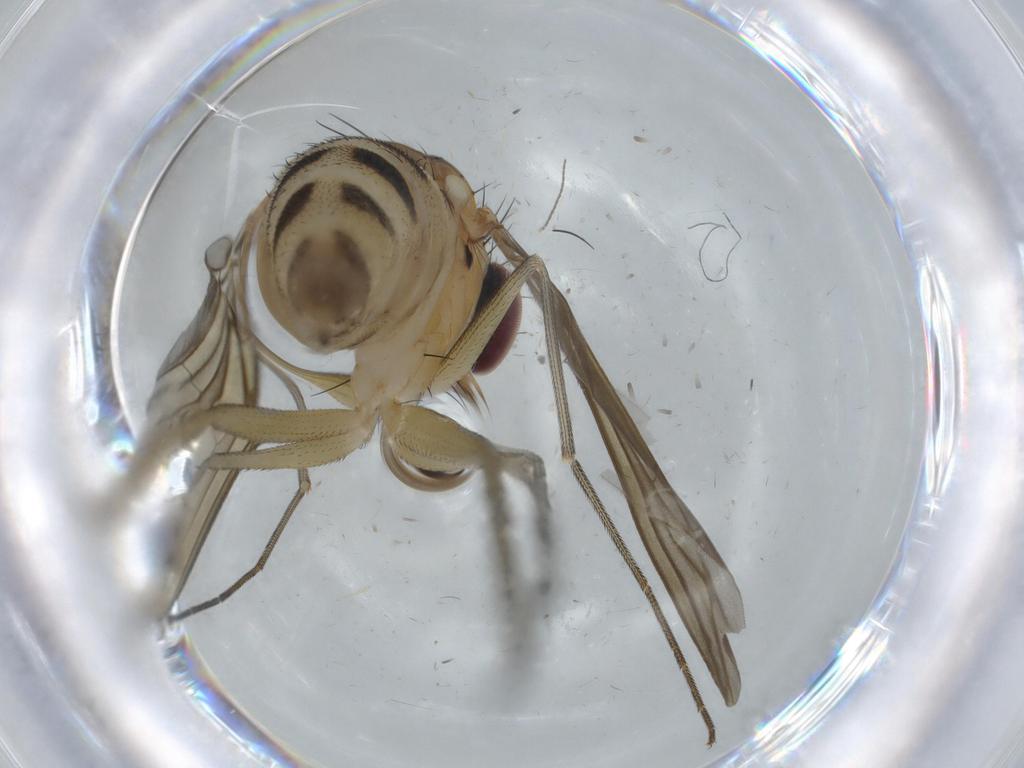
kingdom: Animalia
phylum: Arthropoda
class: Insecta
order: Diptera
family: Dolichopodidae
